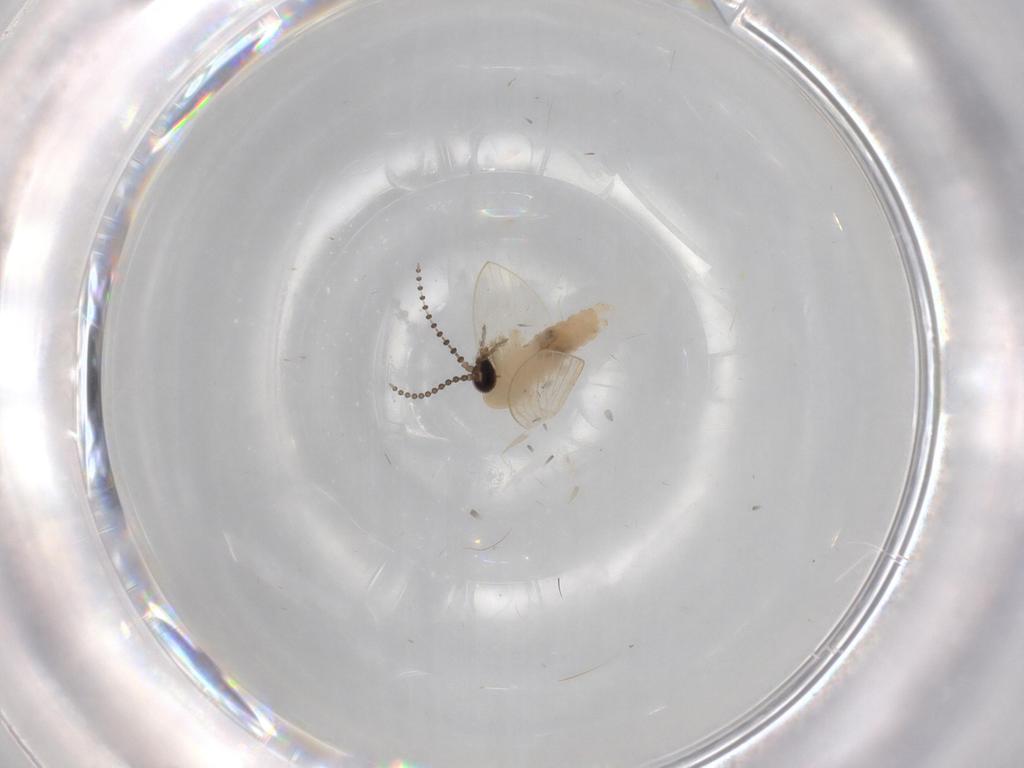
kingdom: Animalia
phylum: Arthropoda
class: Insecta
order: Diptera
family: Psychodidae
